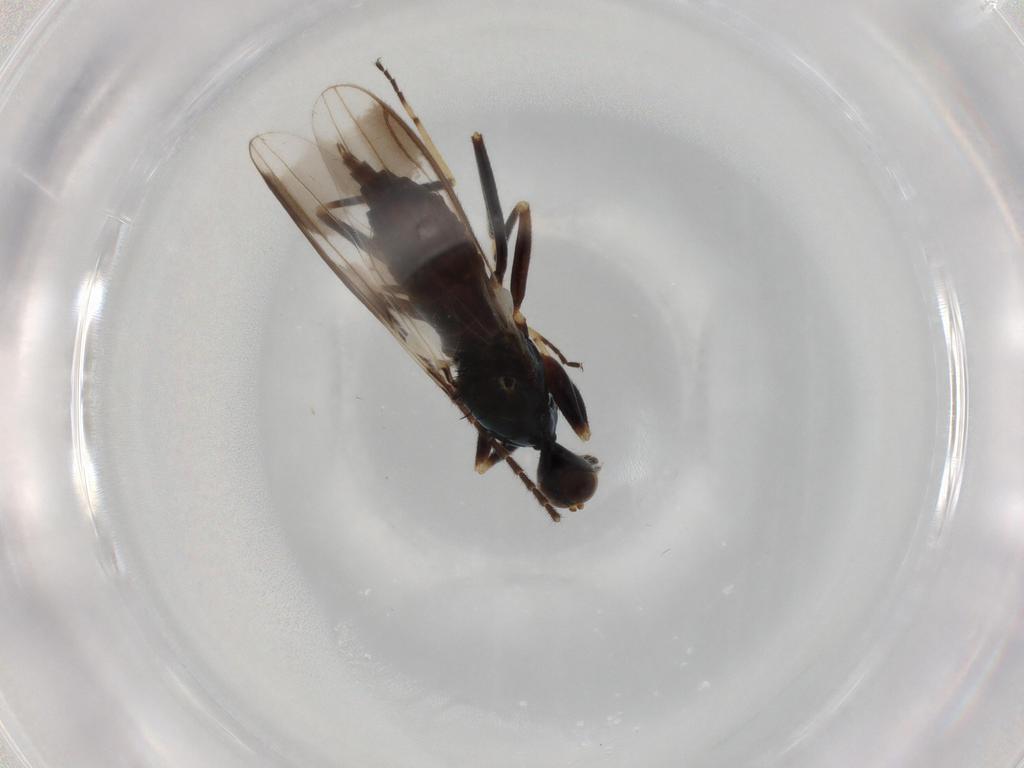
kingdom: Animalia
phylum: Arthropoda
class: Insecta
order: Diptera
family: Hybotidae
